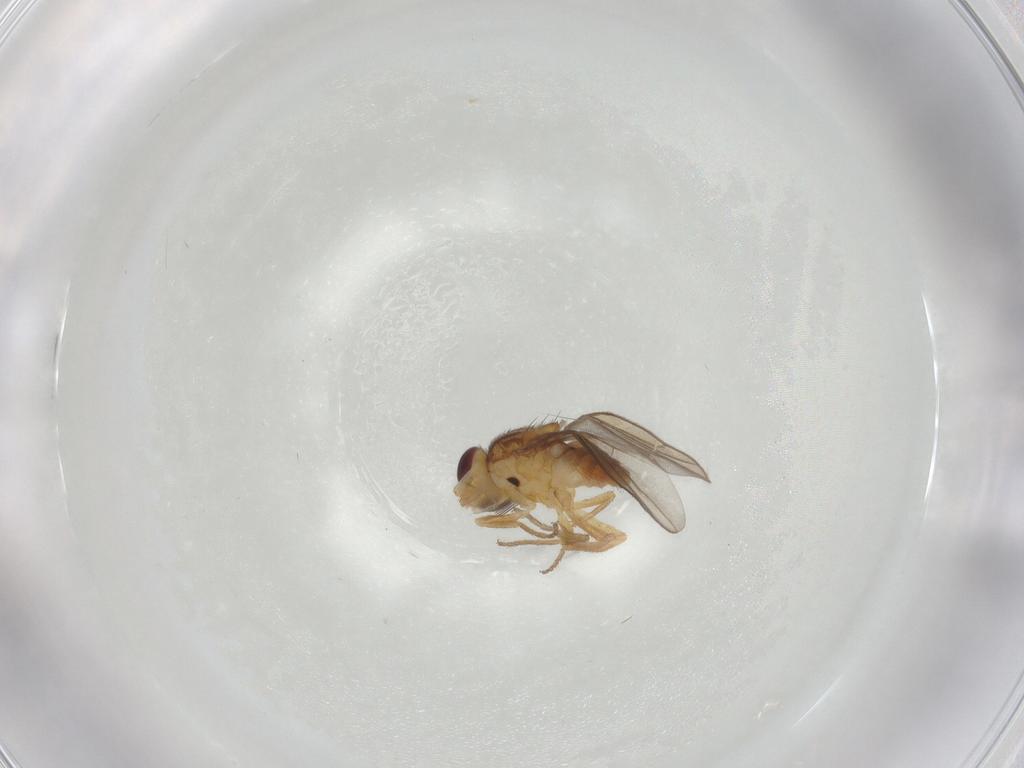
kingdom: Animalia
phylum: Arthropoda
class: Insecta
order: Diptera
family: Chloropidae
